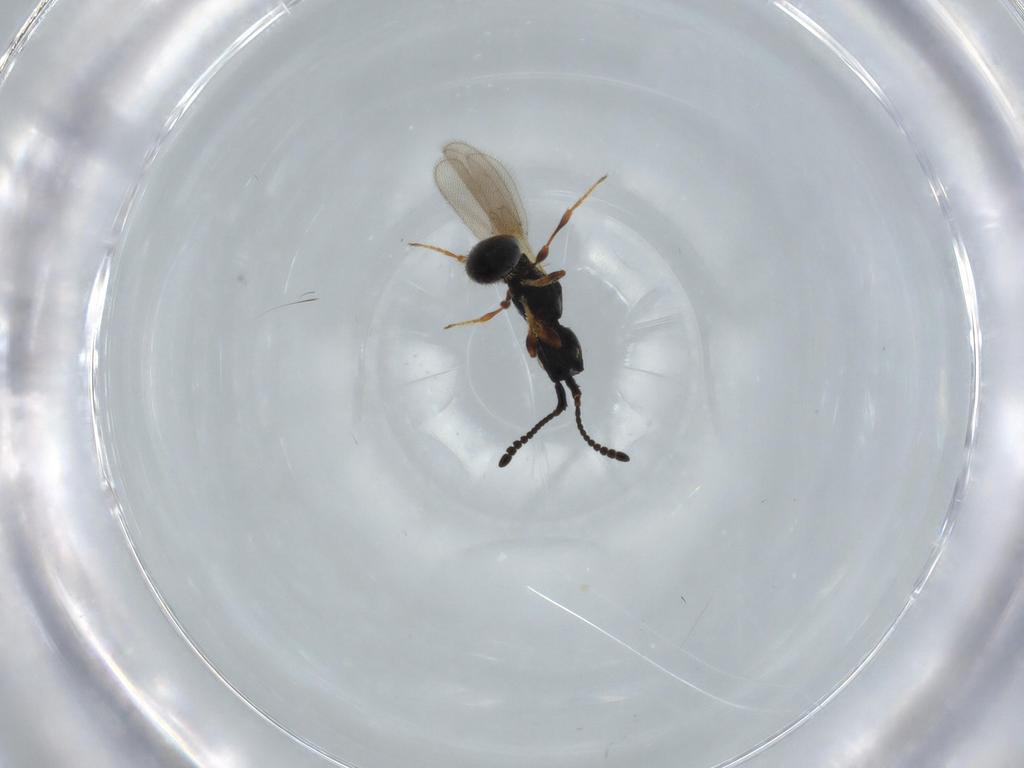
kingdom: Animalia
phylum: Arthropoda
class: Insecta
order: Hymenoptera
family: Diapriidae
